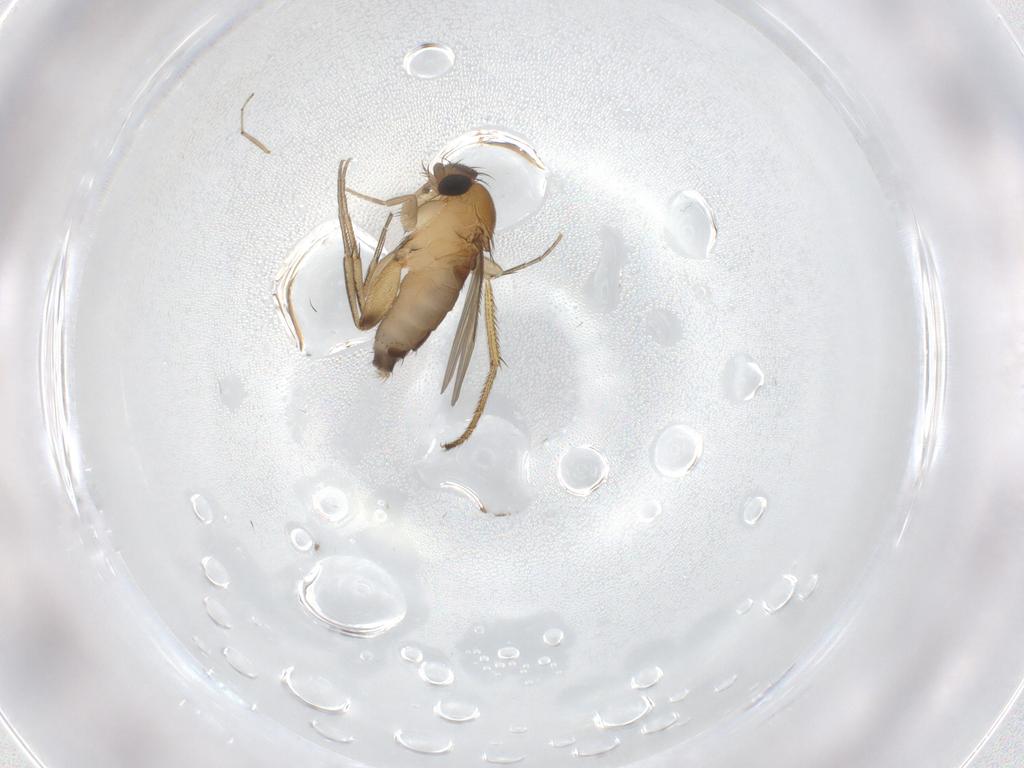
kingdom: Animalia
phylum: Arthropoda
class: Insecta
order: Diptera
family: Phoridae
